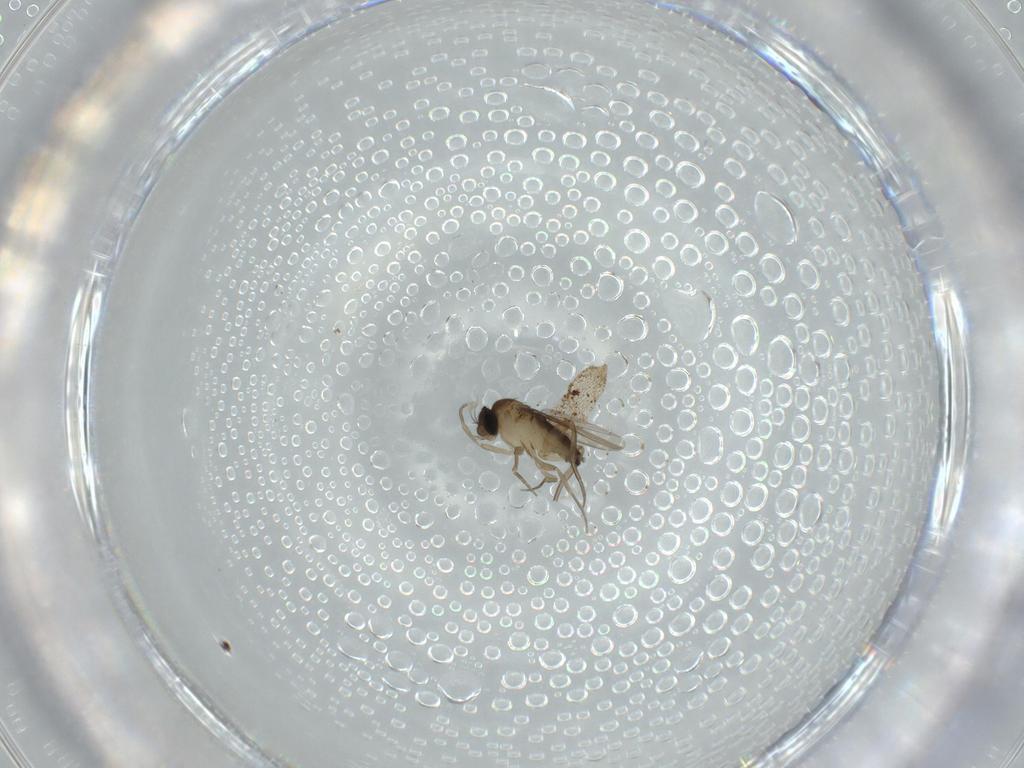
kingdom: Animalia
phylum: Arthropoda
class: Insecta
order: Diptera
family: Phoridae
